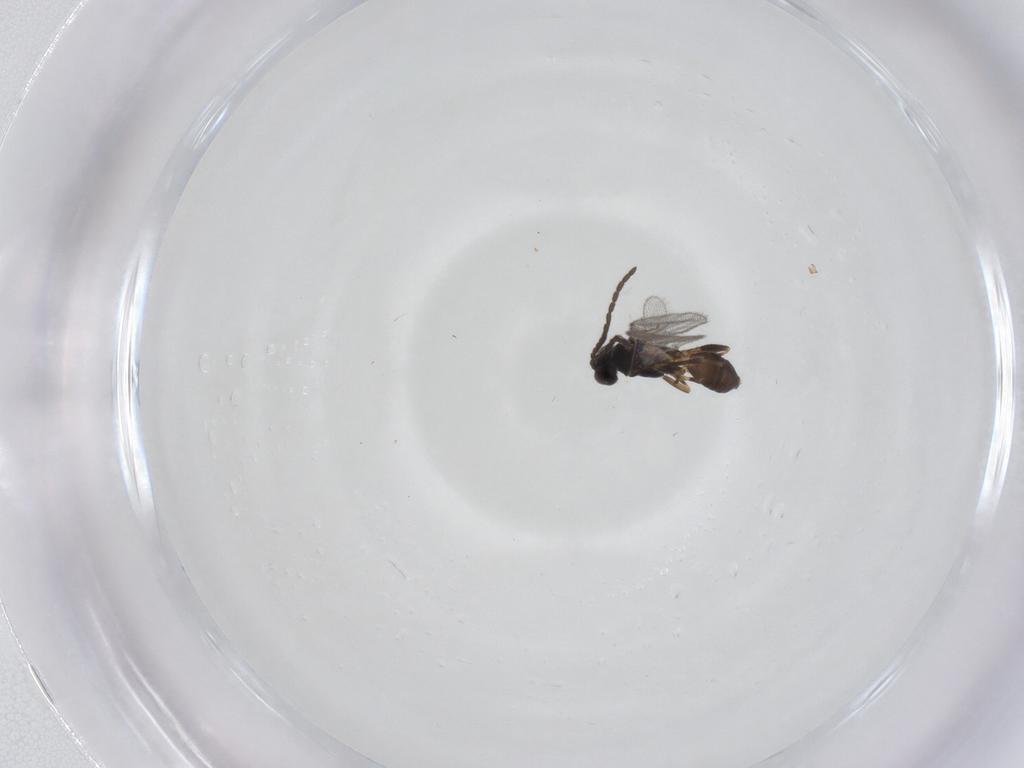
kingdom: Animalia
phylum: Arthropoda
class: Insecta
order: Hymenoptera
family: Braconidae
